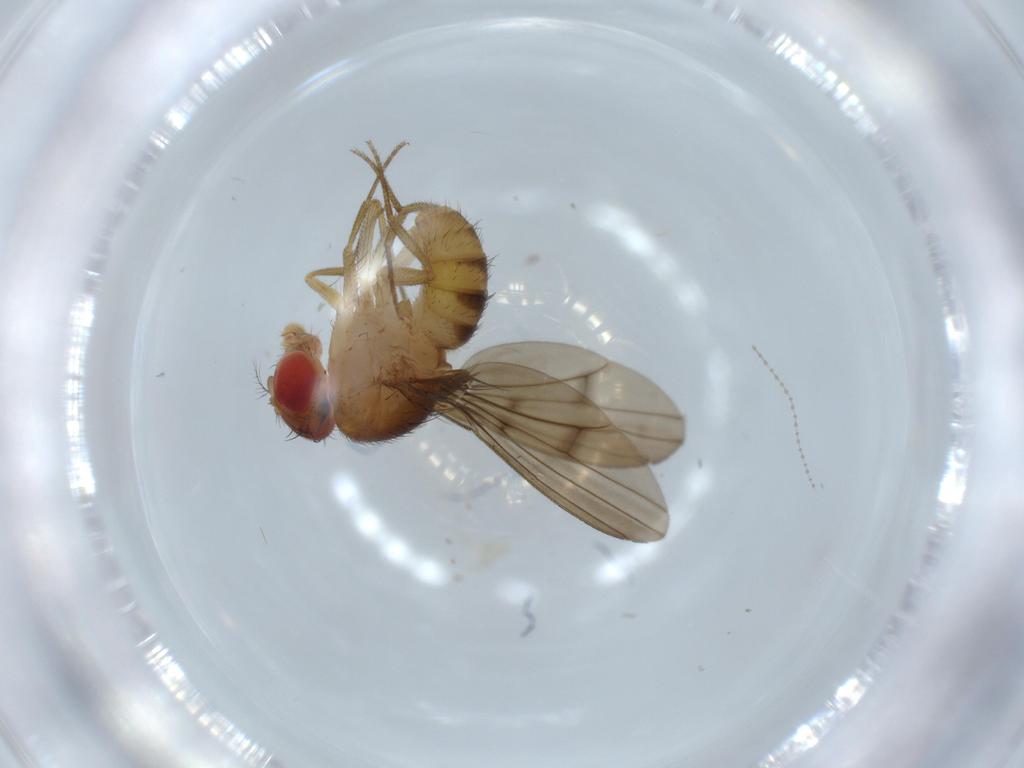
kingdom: Animalia
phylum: Arthropoda
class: Insecta
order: Diptera
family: Drosophilidae
